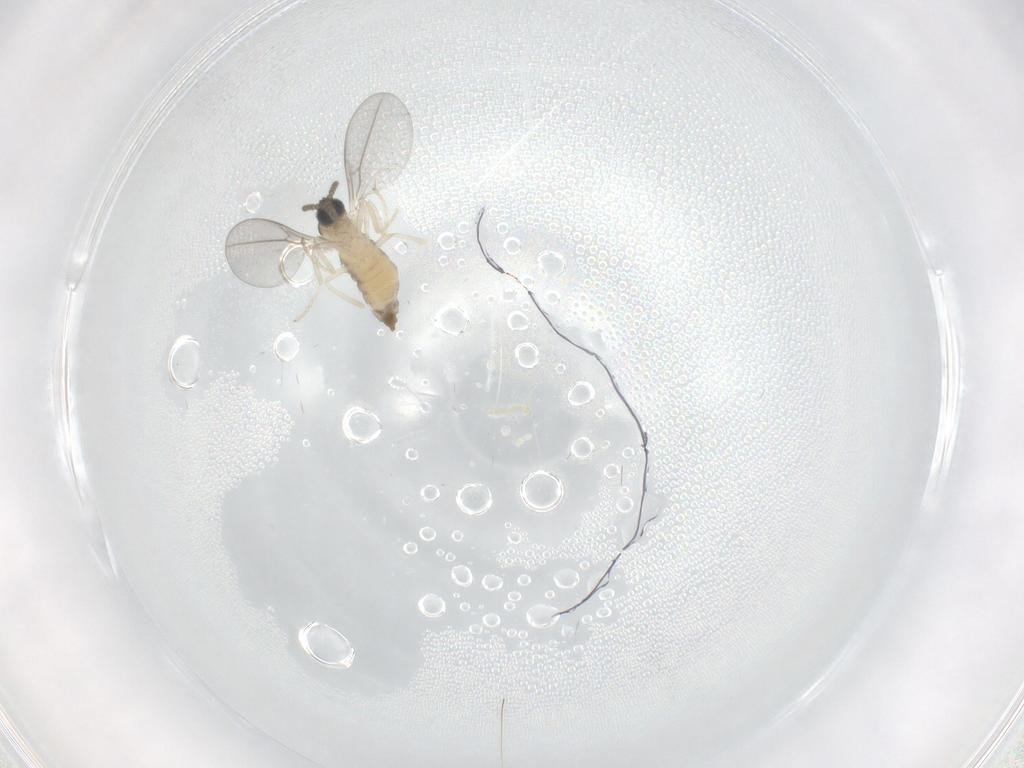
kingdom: Animalia
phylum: Arthropoda
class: Insecta
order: Diptera
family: Cecidomyiidae
